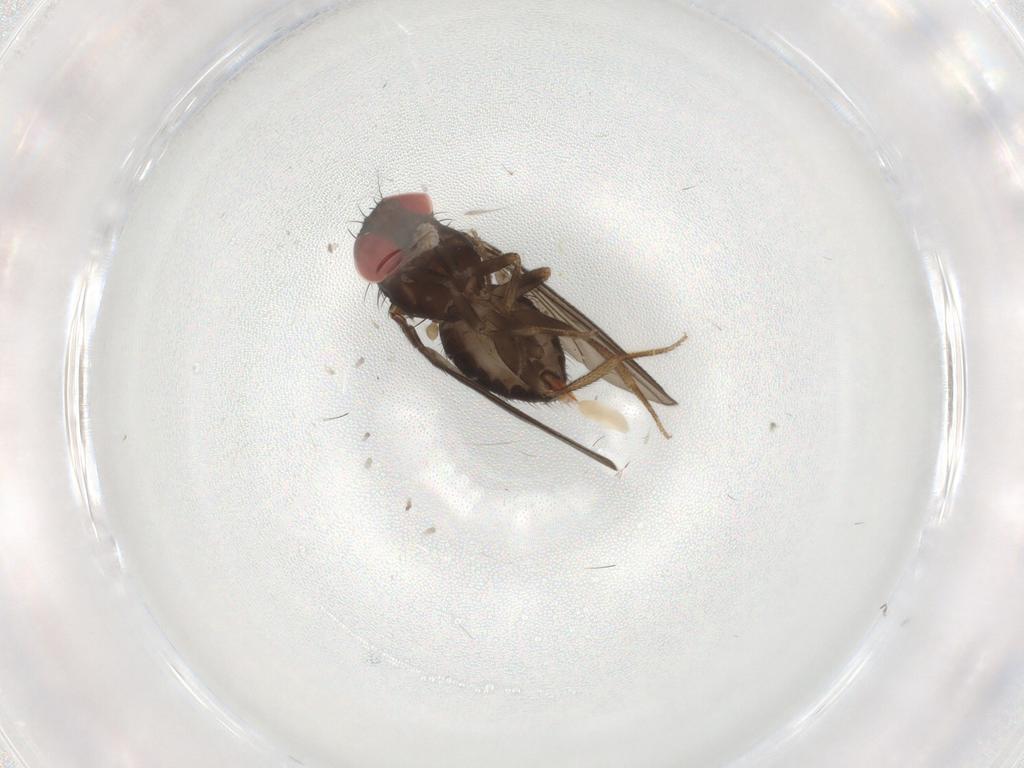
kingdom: Animalia
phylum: Arthropoda
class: Insecta
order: Diptera
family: Drosophilidae
